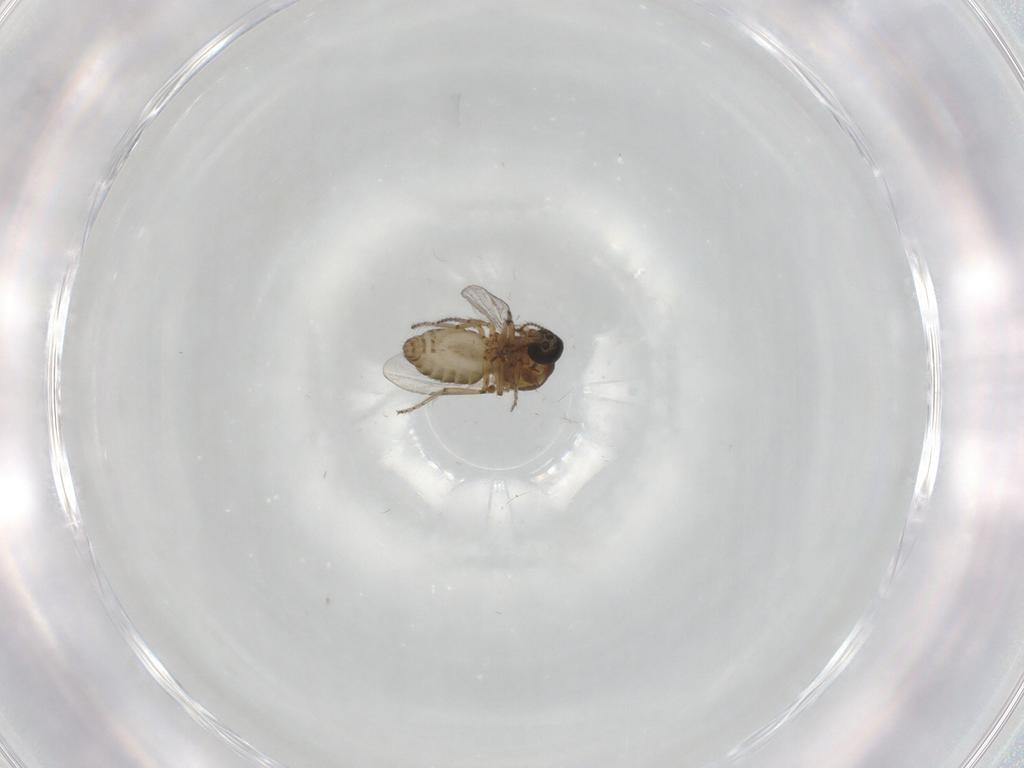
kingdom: Animalia
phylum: Arthropoda
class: Insecta
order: Diptera
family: Ceratopogonidae
